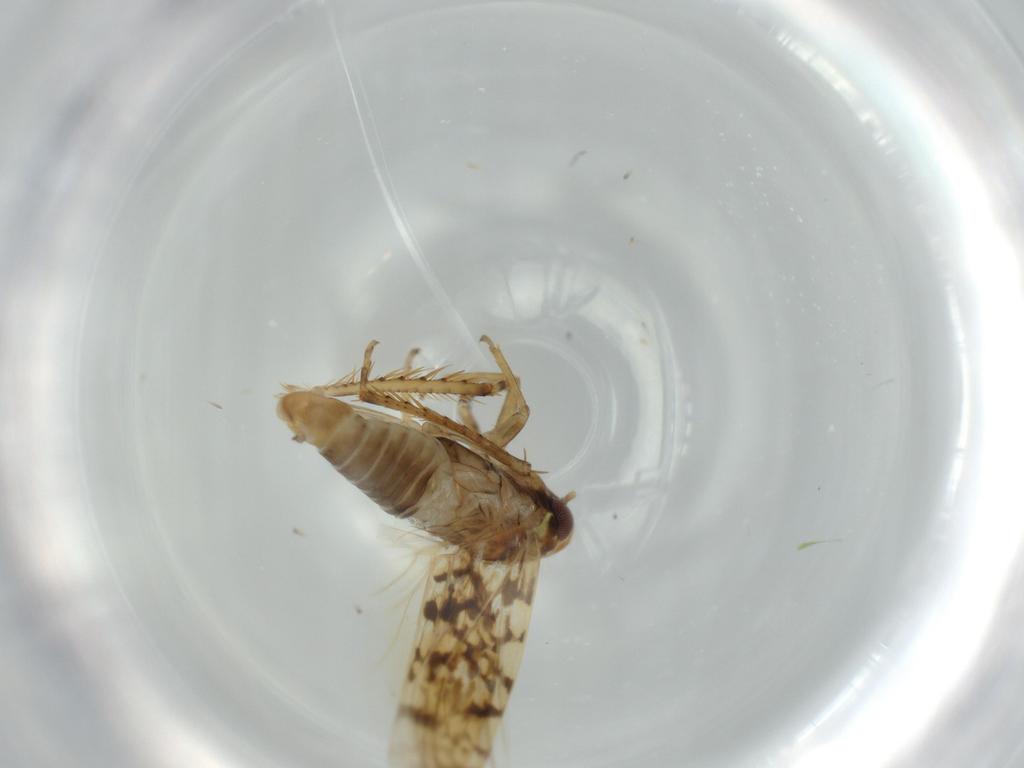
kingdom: Animalia
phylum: Arthropoda
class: Insecta
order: Hemiptera
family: Cicadellidae
